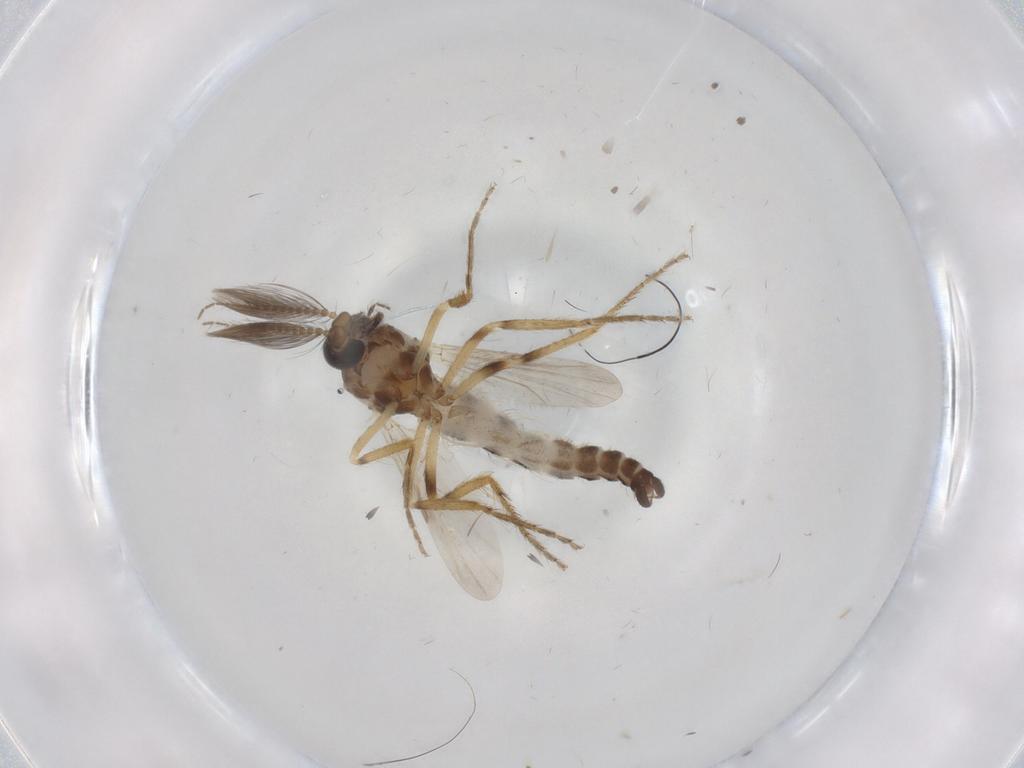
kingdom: Animalia
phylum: Arthropoda
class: Insecta
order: Diptera
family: Ceratopogonidae
